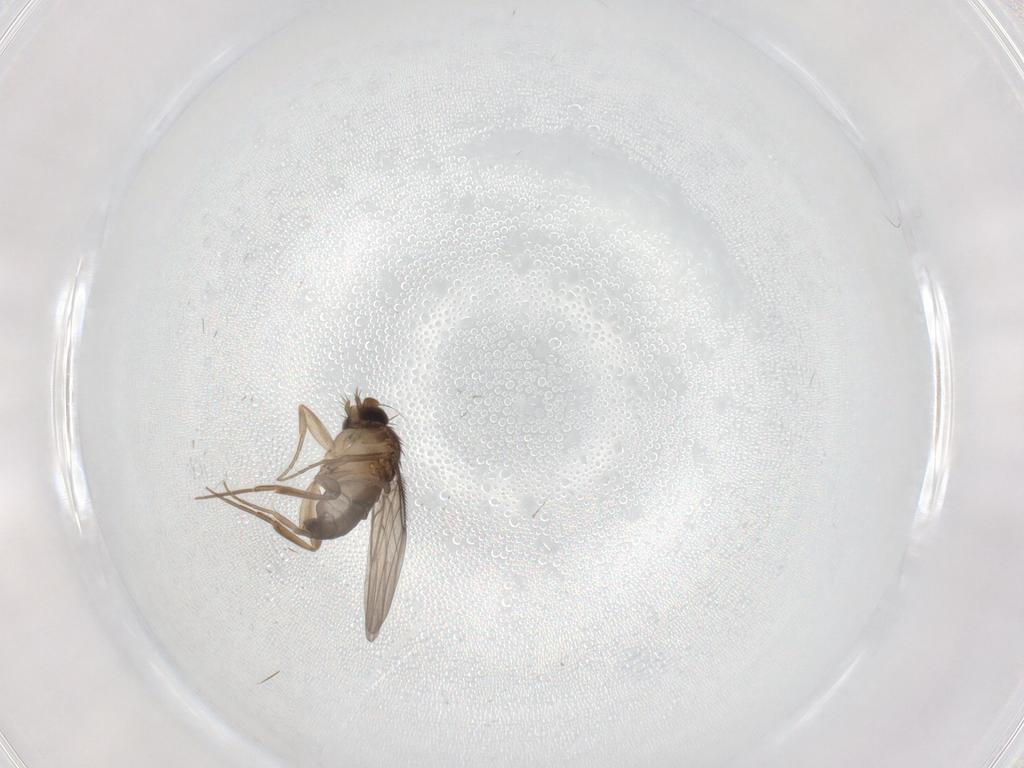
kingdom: Animalia
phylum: Arthropoda
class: Insecta
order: Diptera
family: Phoridae
